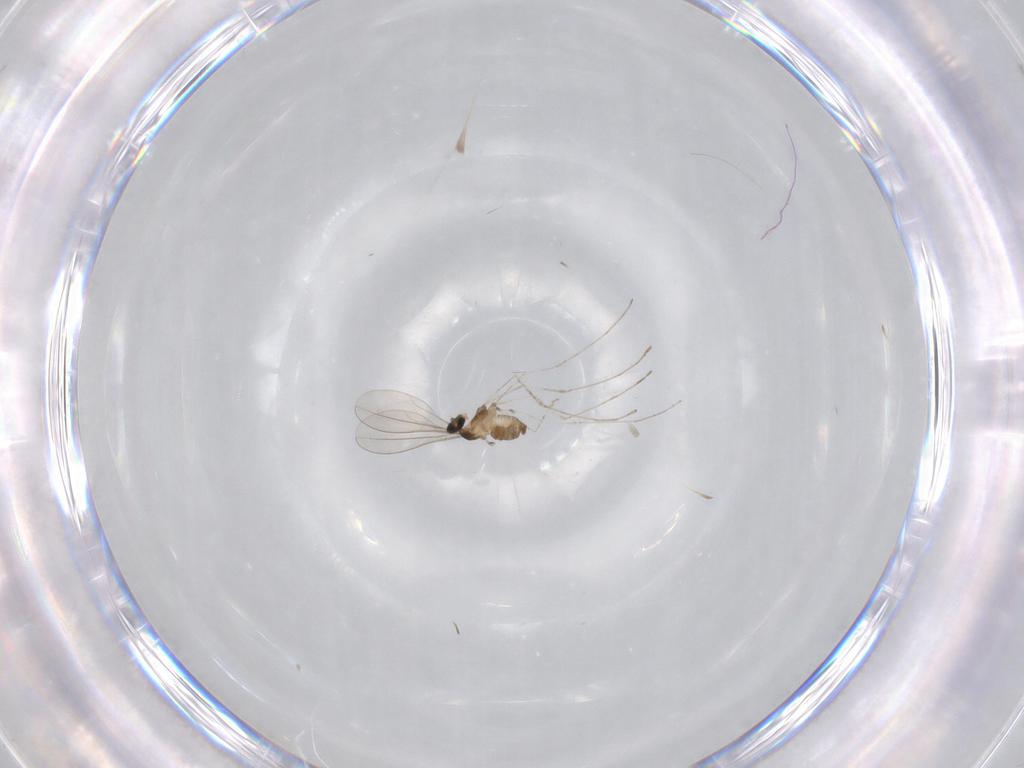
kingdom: Animalia
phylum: Arthropoda
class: Insecta
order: Diptera
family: Cecidomyiidae
